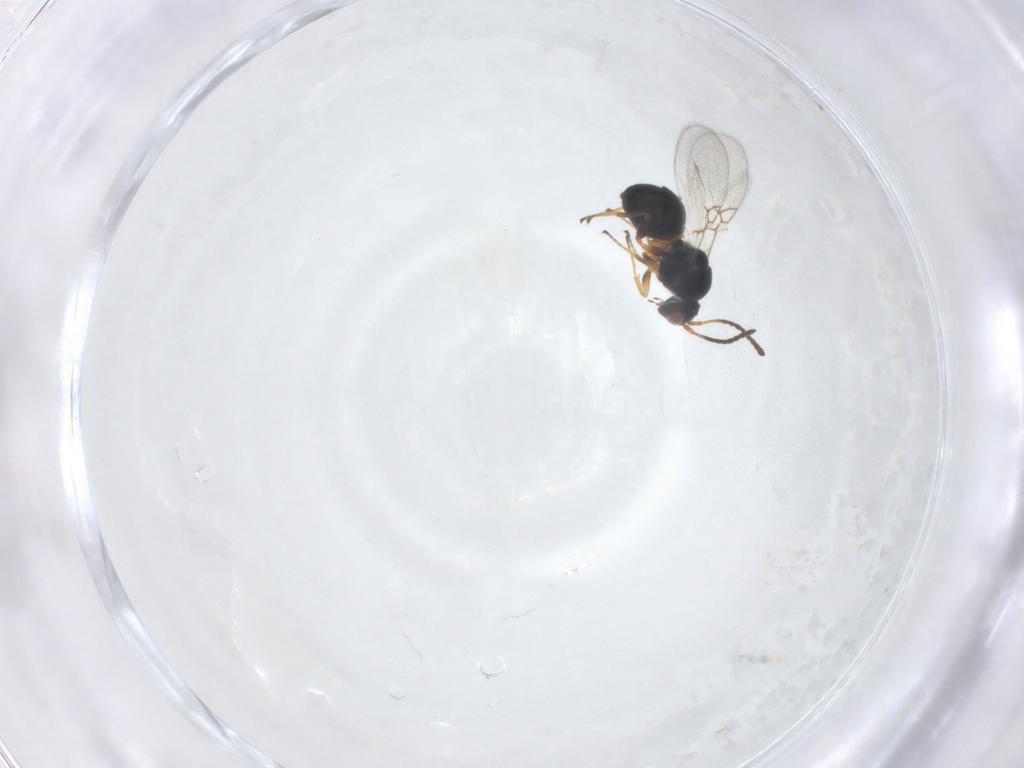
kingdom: Animalia
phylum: Arthropoda
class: Insecta
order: Hymenoptera
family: Figitidae
